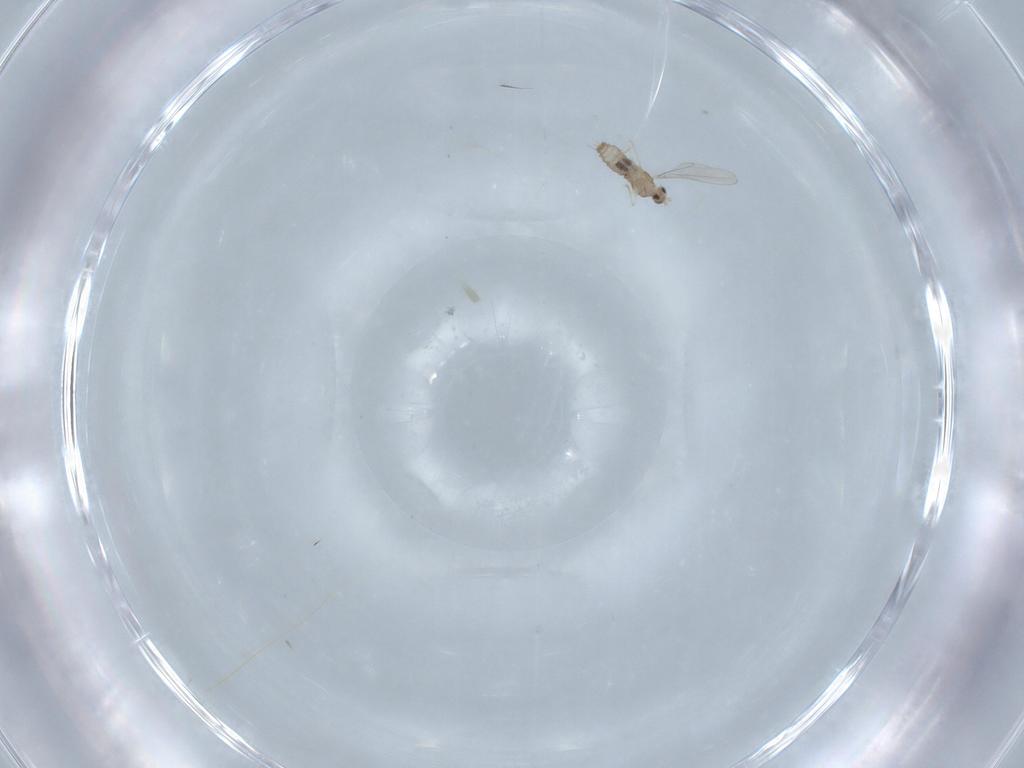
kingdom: Animalia
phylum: Arthropoda
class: Insecta
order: Diptera
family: Cecidomyiidae
